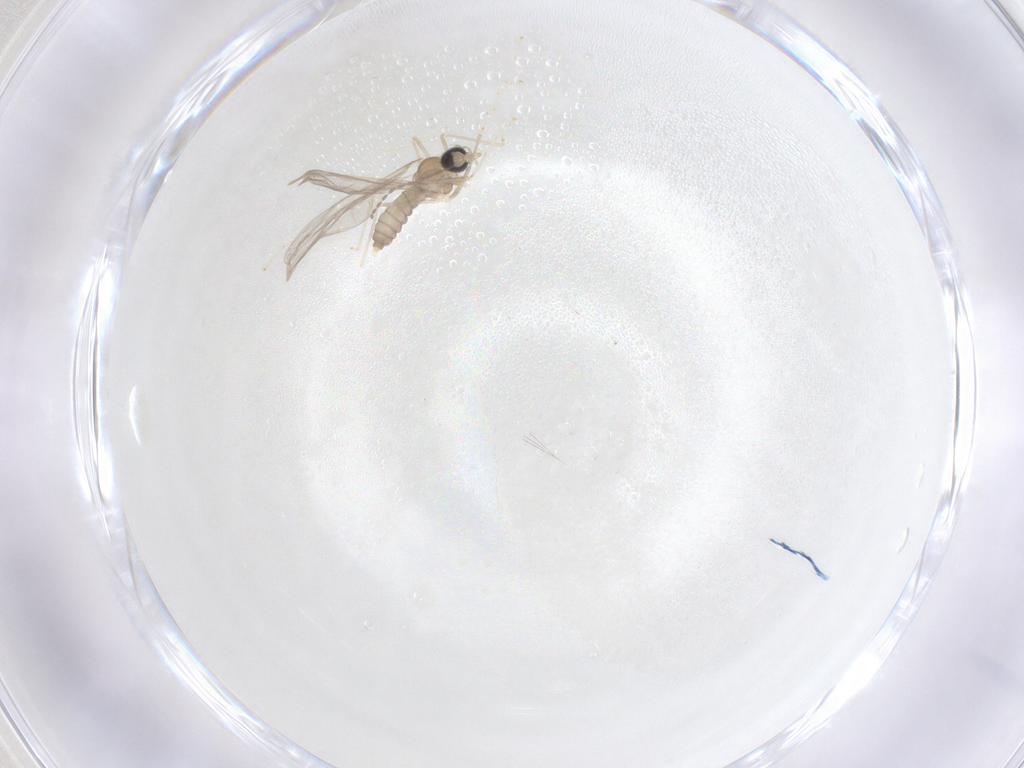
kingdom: Animalia
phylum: Arthropoda
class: Insecta
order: Diptera
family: Cecidomyiidae
